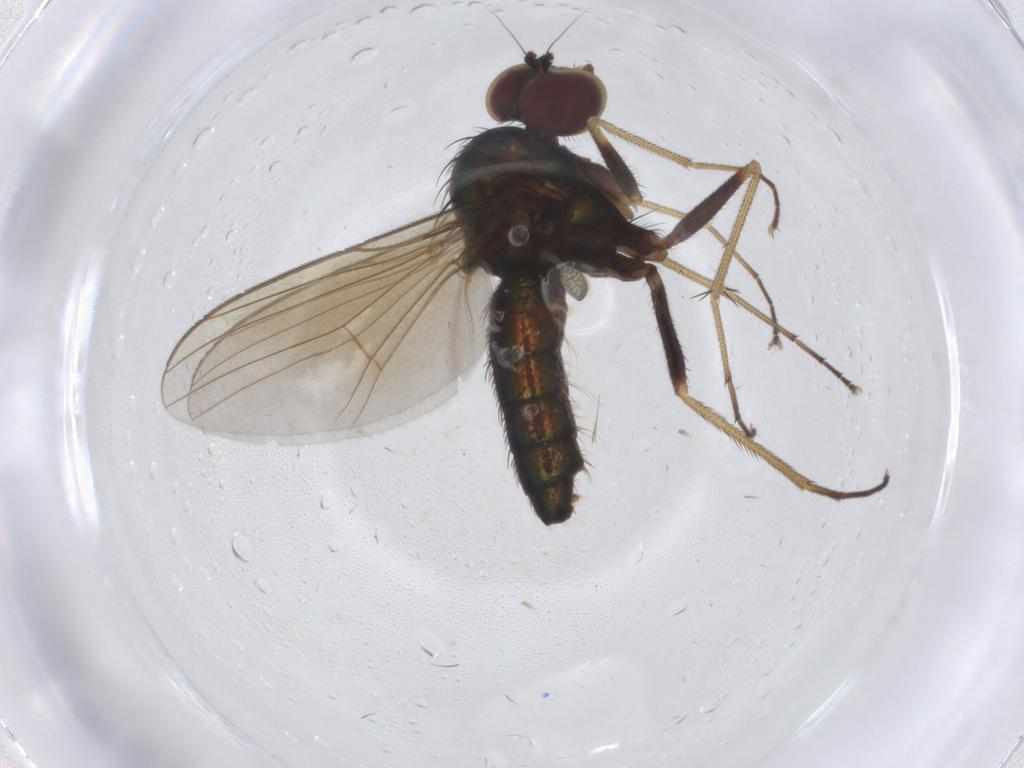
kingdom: Animalia
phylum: Arthropoda
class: Insecta
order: Diptera
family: Dolichopodidae
